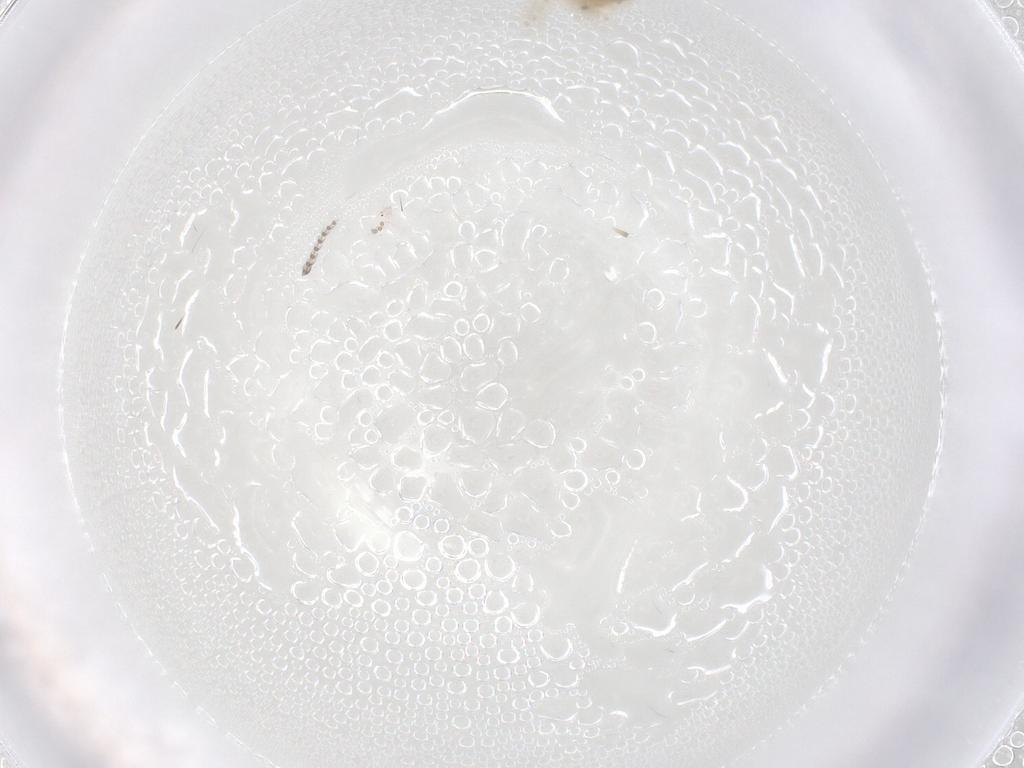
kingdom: Animalia
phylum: Arthropoda
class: Insecta
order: Diptera
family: Psychodidae
